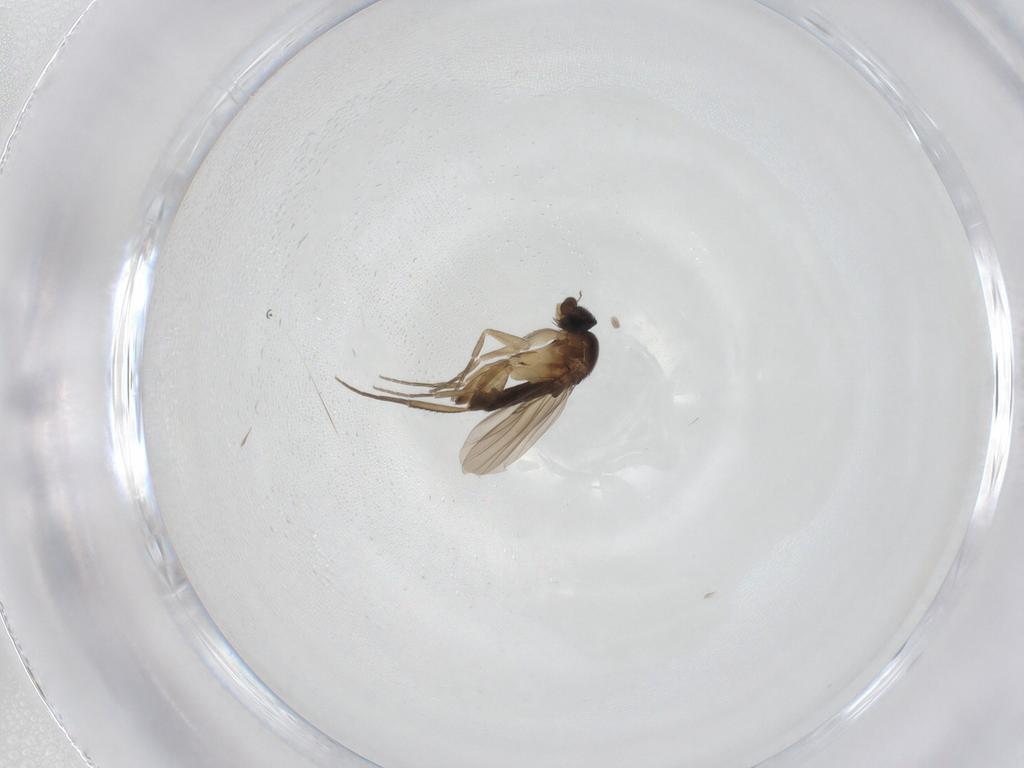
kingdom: Animalia
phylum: Arthropoda
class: Insecta
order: Diptera
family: Phoridae
